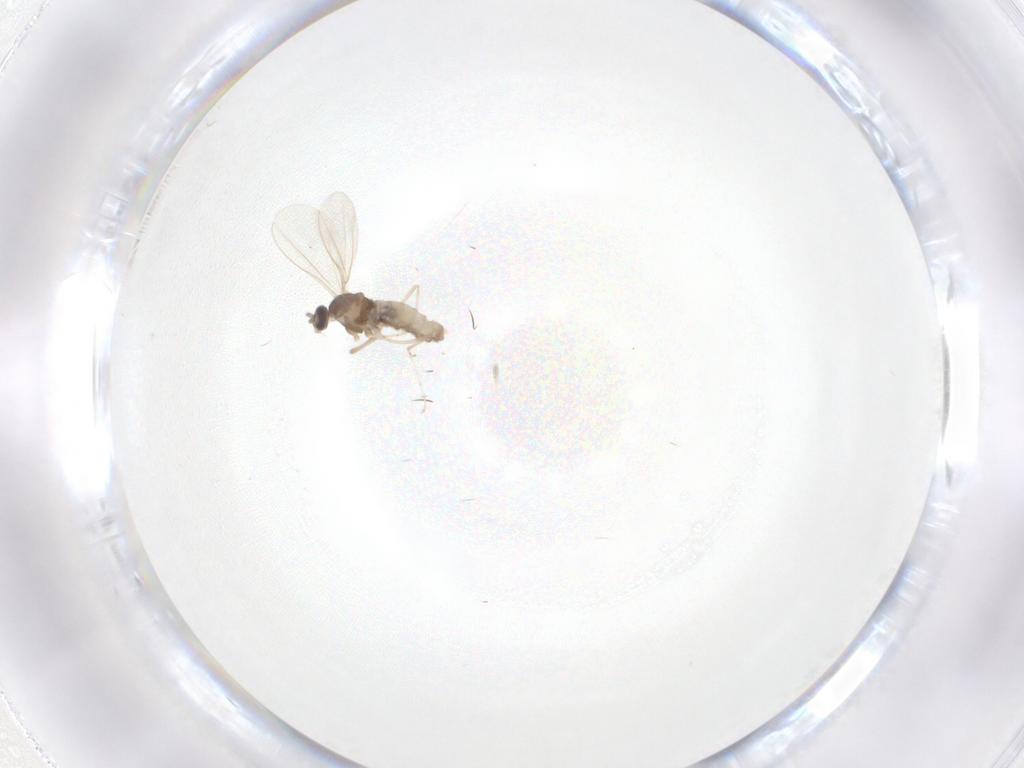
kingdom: Animalia
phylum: Arthropoda
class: Insecta
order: Diptera
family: Cecidomyiidae
